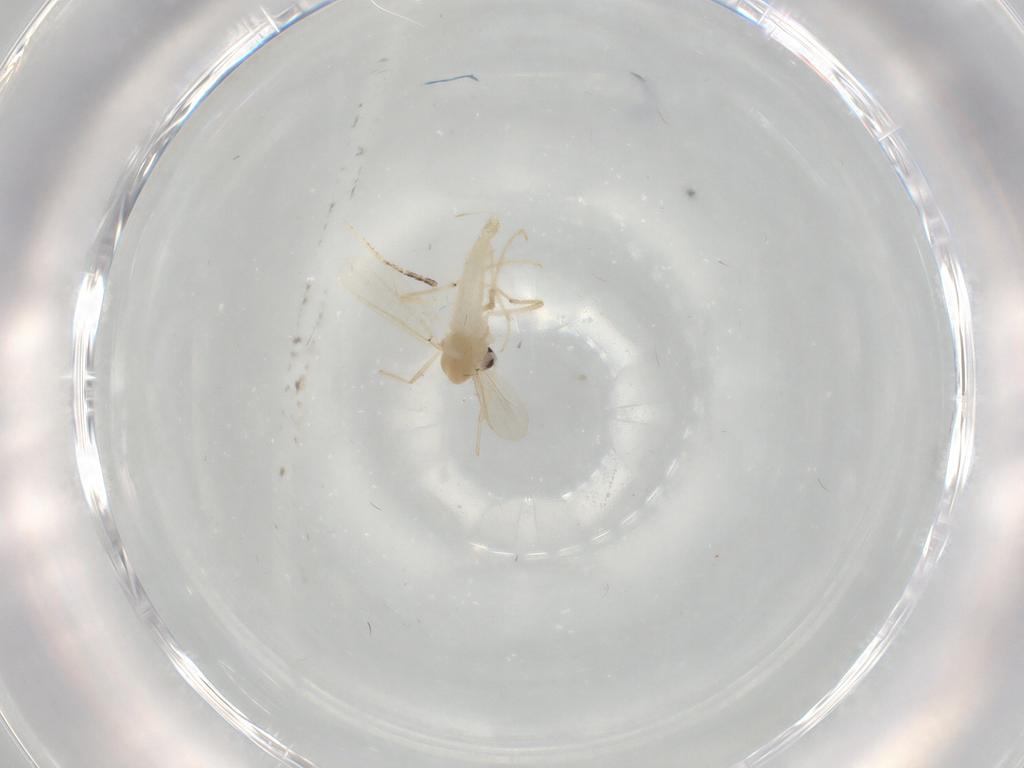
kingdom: Animalia
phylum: Arthropoda
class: Insecta
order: Diptera
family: Chironomidae
